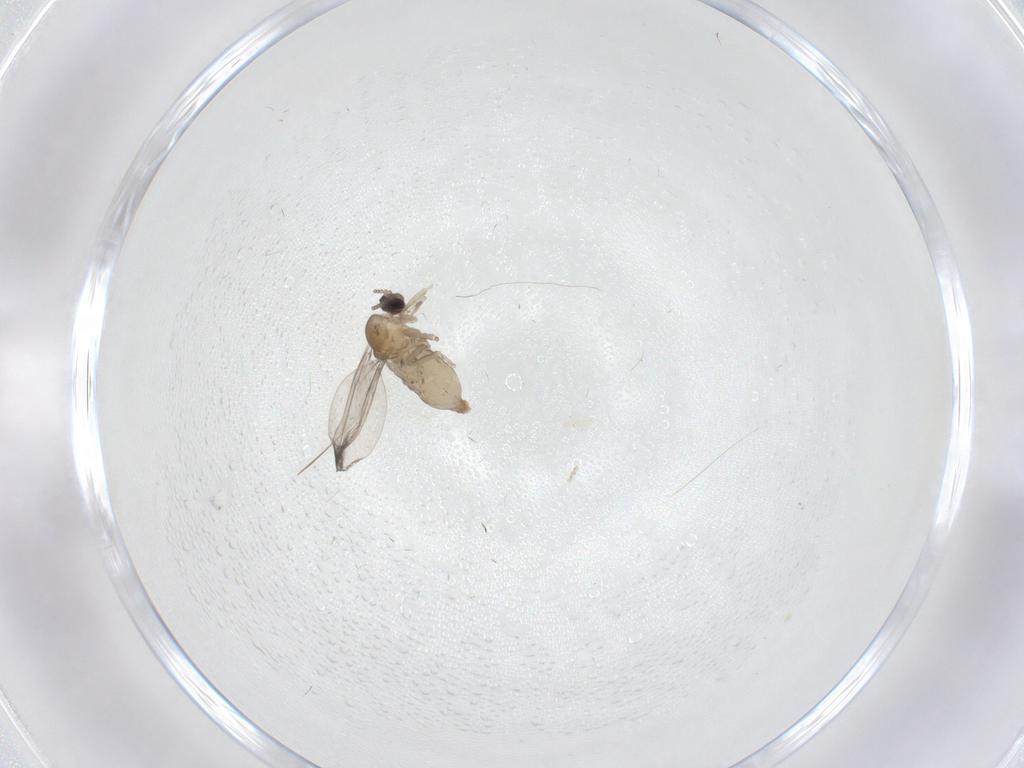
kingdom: Animalia
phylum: Arthropoda
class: Insecta
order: Diptera
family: Cecidomyiidae
